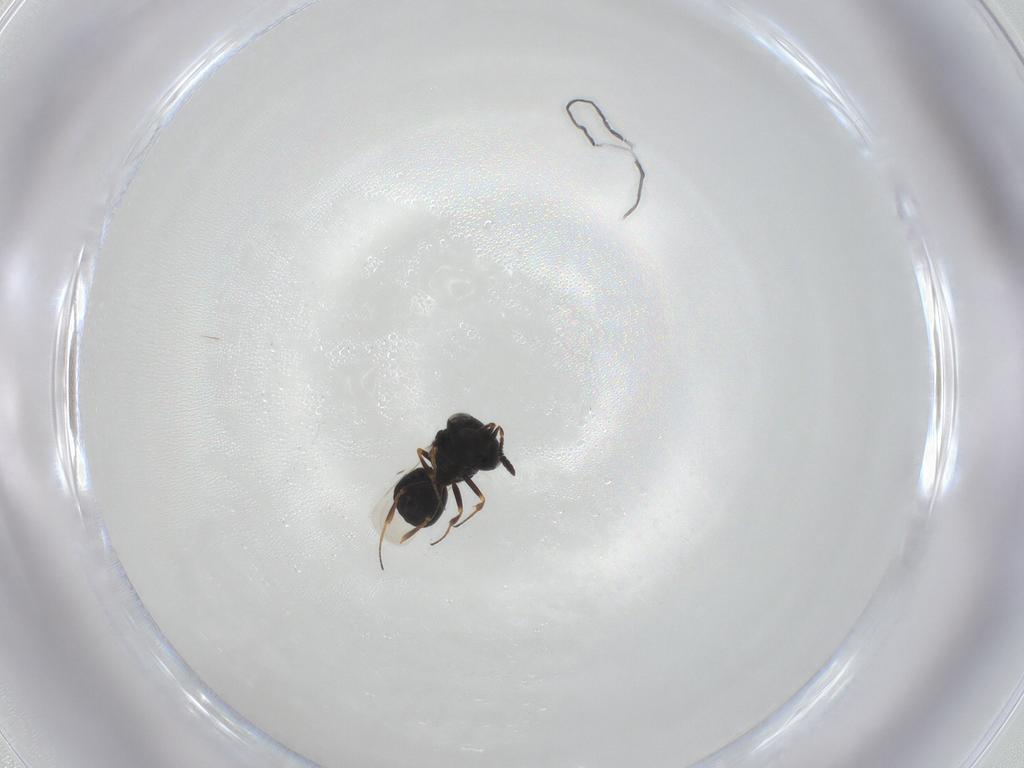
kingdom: Animalia
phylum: Arthropoda
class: Insecta
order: Hymenoptera
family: Scelionidae
